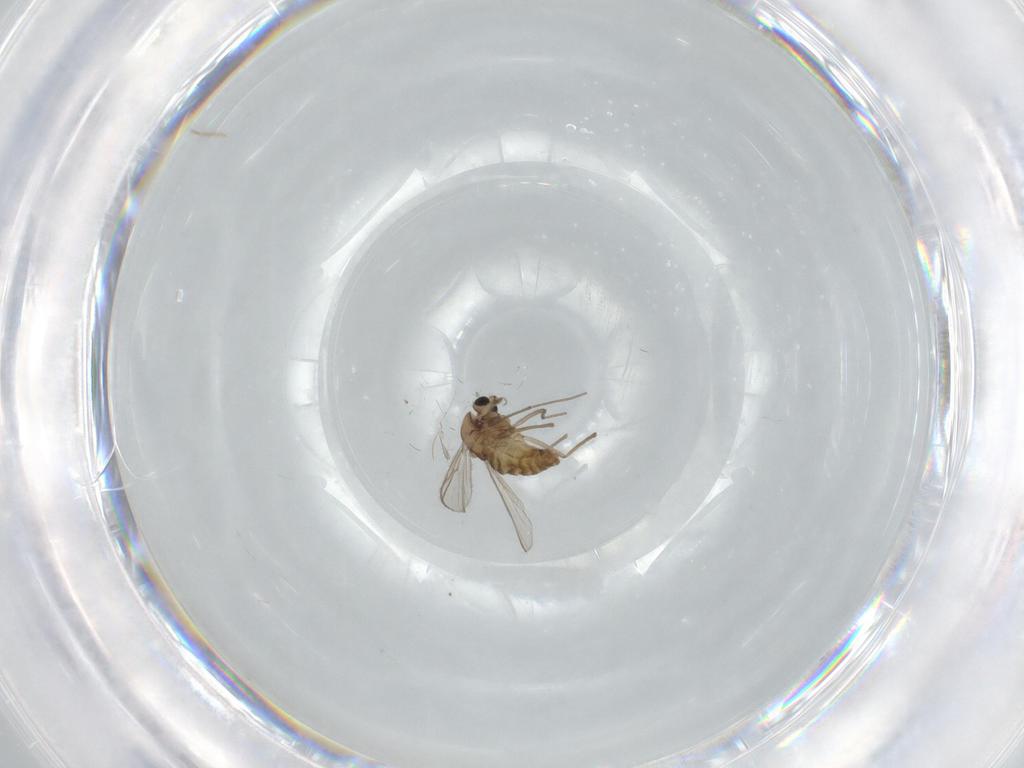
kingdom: Animalia
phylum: Arthropoda
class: Insecta
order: Diptera
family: Chironomidae
